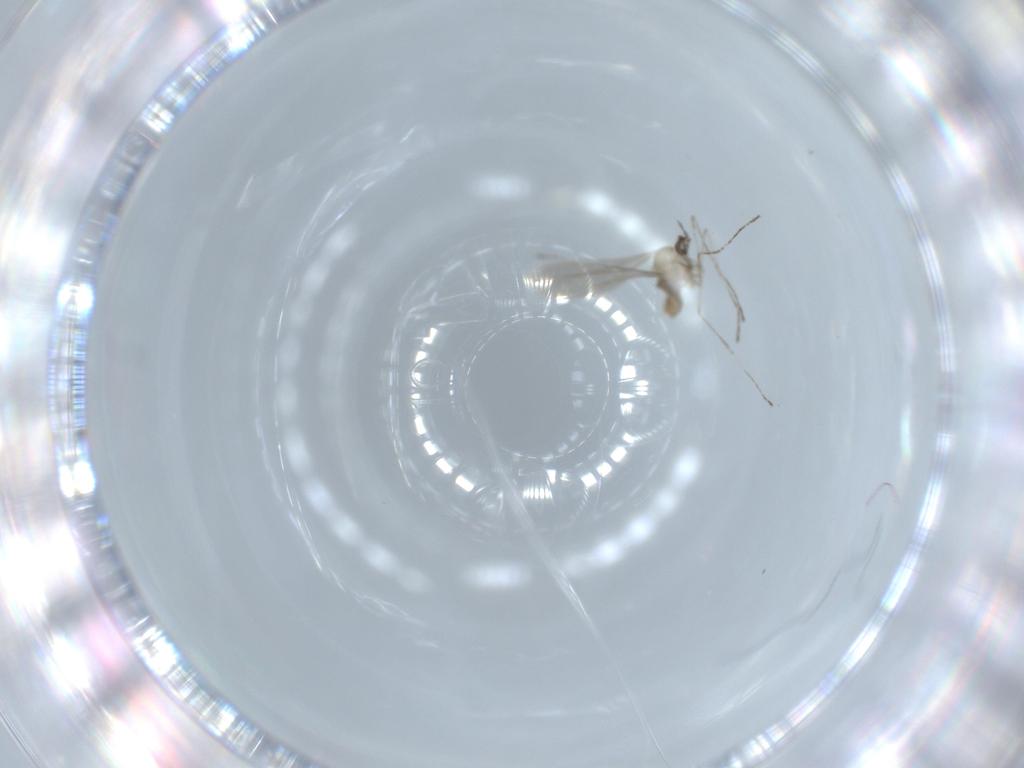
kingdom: Animalia
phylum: Arthropoda
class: Insecta
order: Diptera
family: Cecidomyiidae
